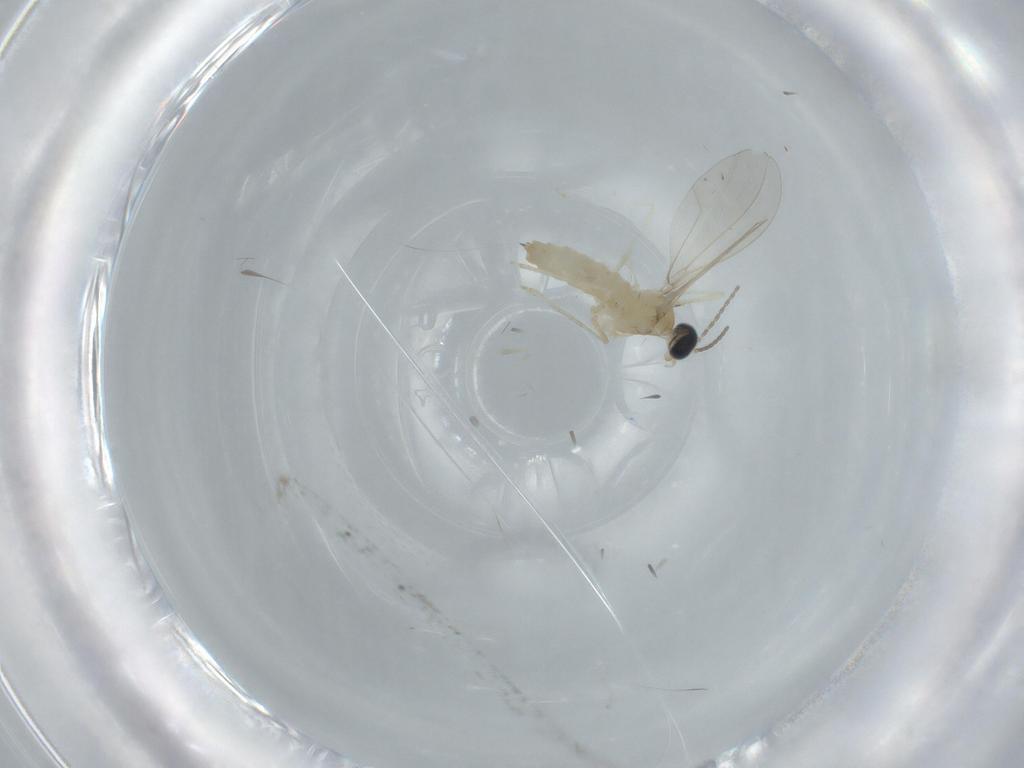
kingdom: Animalia
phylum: Arthropoda
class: Insecta
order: Diptera
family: Cecidomyiidae
